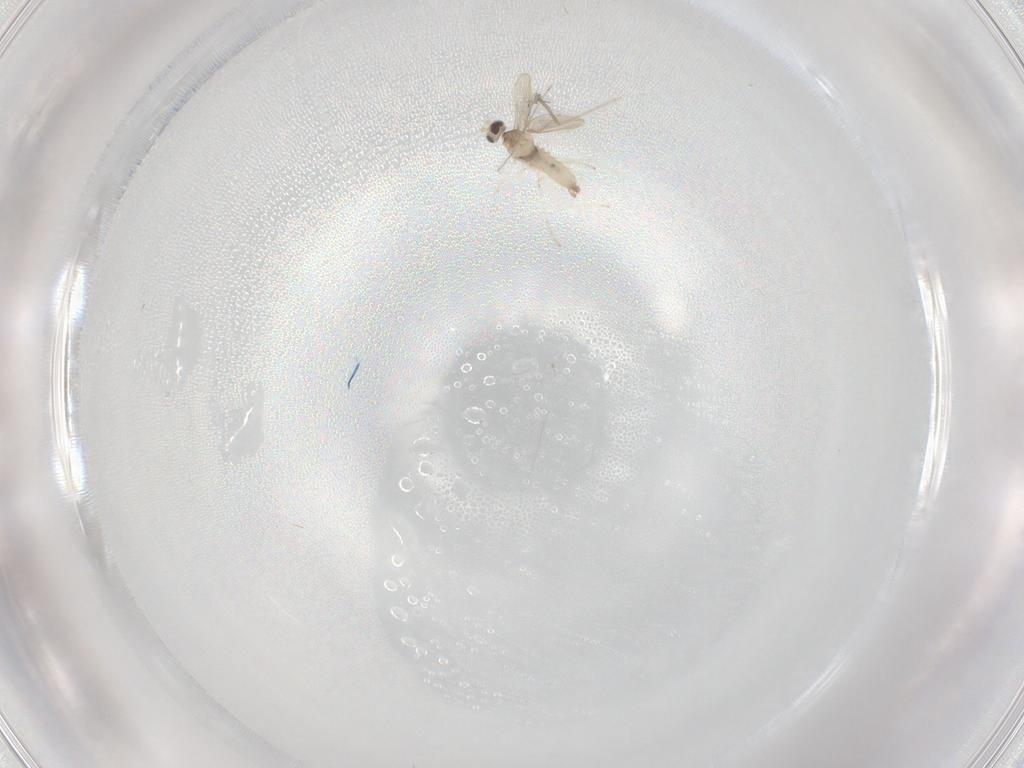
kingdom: Animalia
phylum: Arthropoda
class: Insecta
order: Diptera
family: Cecidomyiidae
